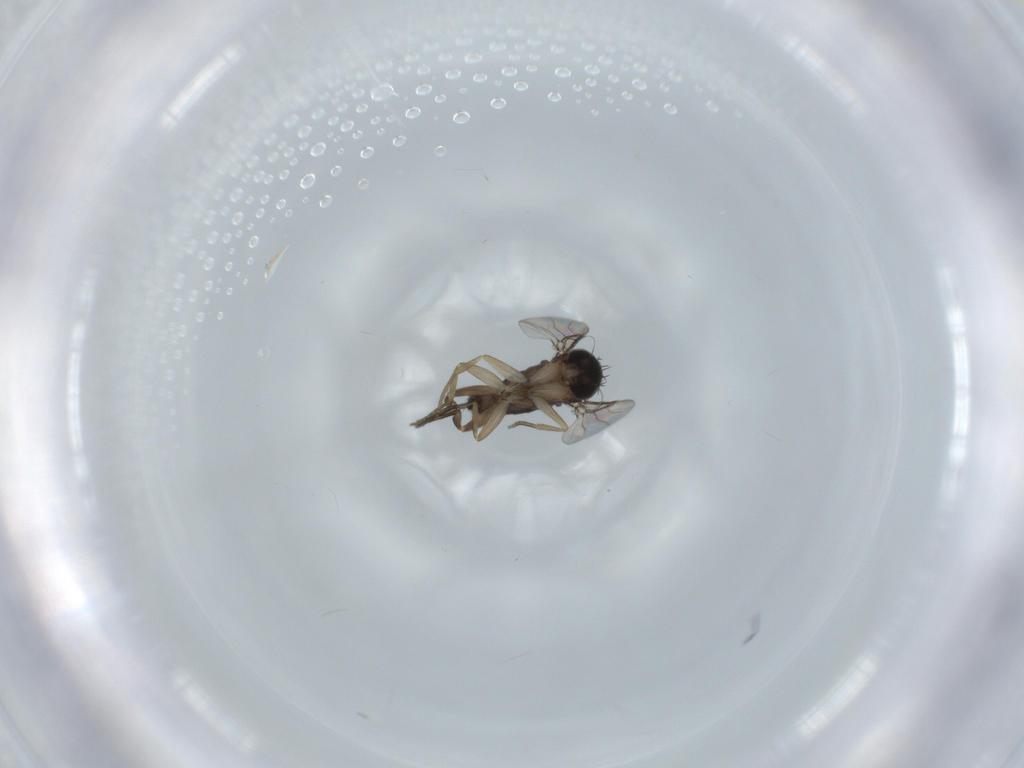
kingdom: Animalia
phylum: Arthropoda
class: Insecta
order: Diptera
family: Phoridae
